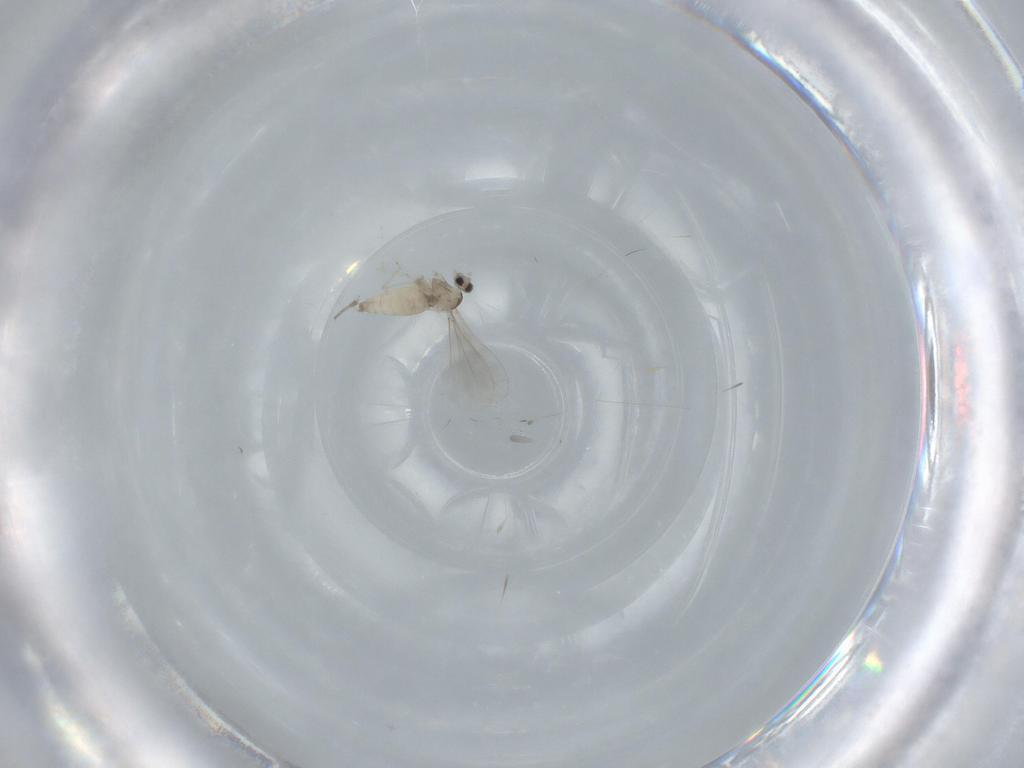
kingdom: Animalia
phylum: Arthropoda
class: Insecta
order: Diptera
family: Cecidomyiidae
